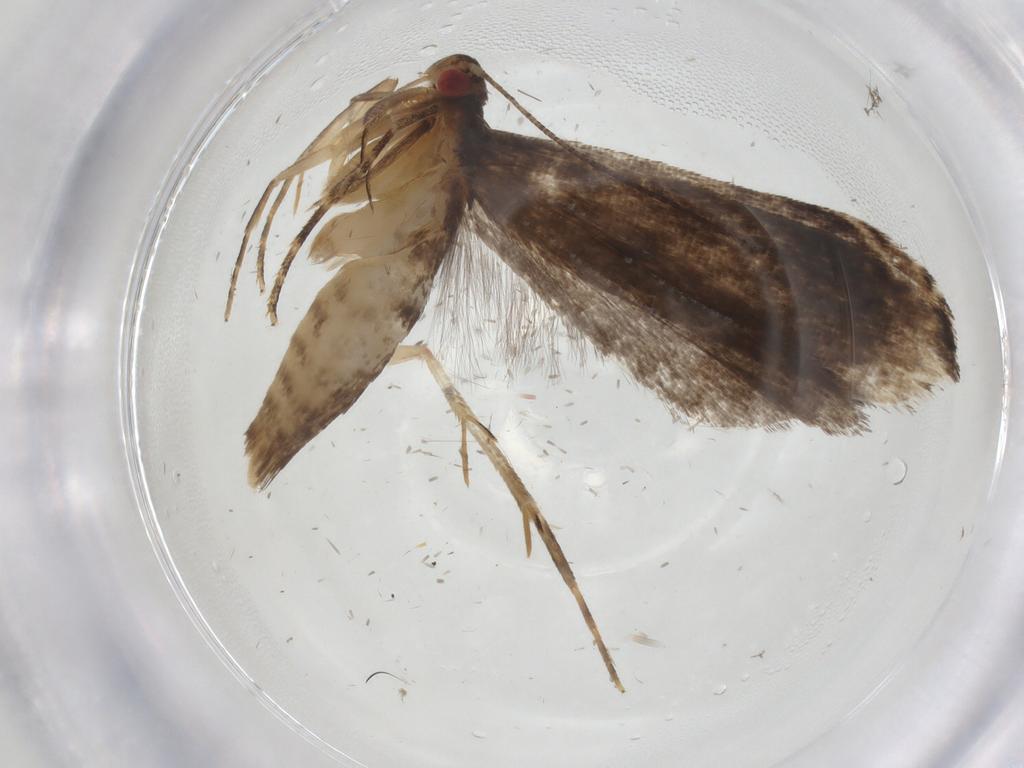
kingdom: Animalia
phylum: Arthropoda
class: Insecta
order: Lepidoptera
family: Gelechiidae
